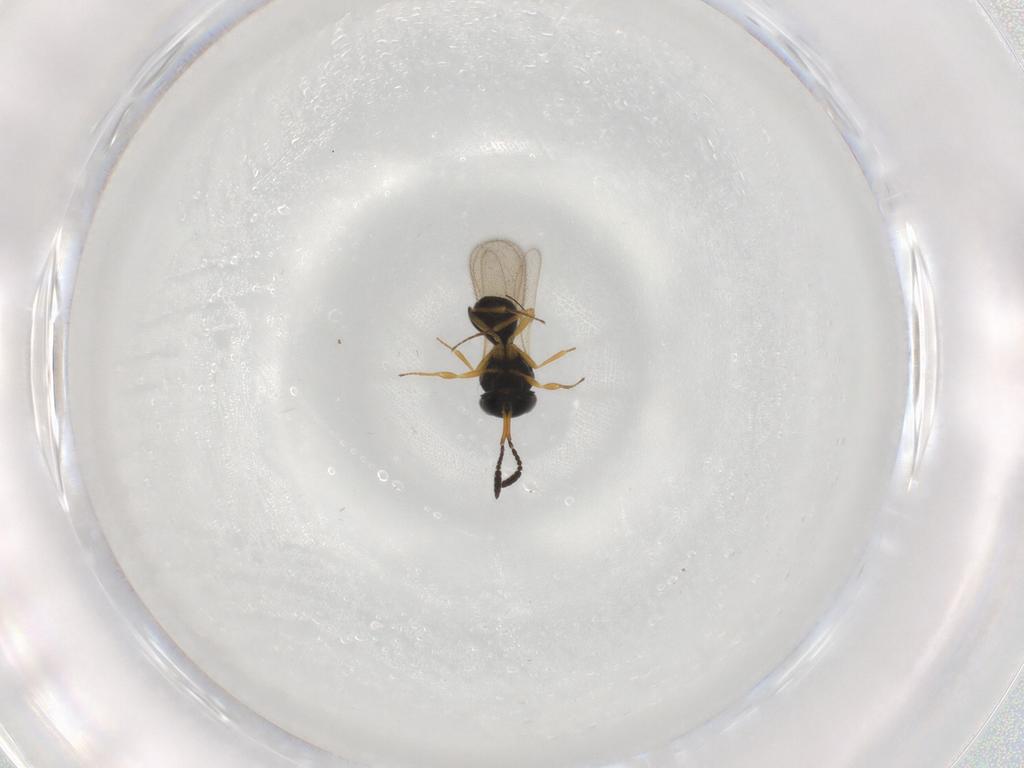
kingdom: Animalia
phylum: Arthropoda
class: Insecta
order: Hymenoptera
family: Scelionidae
